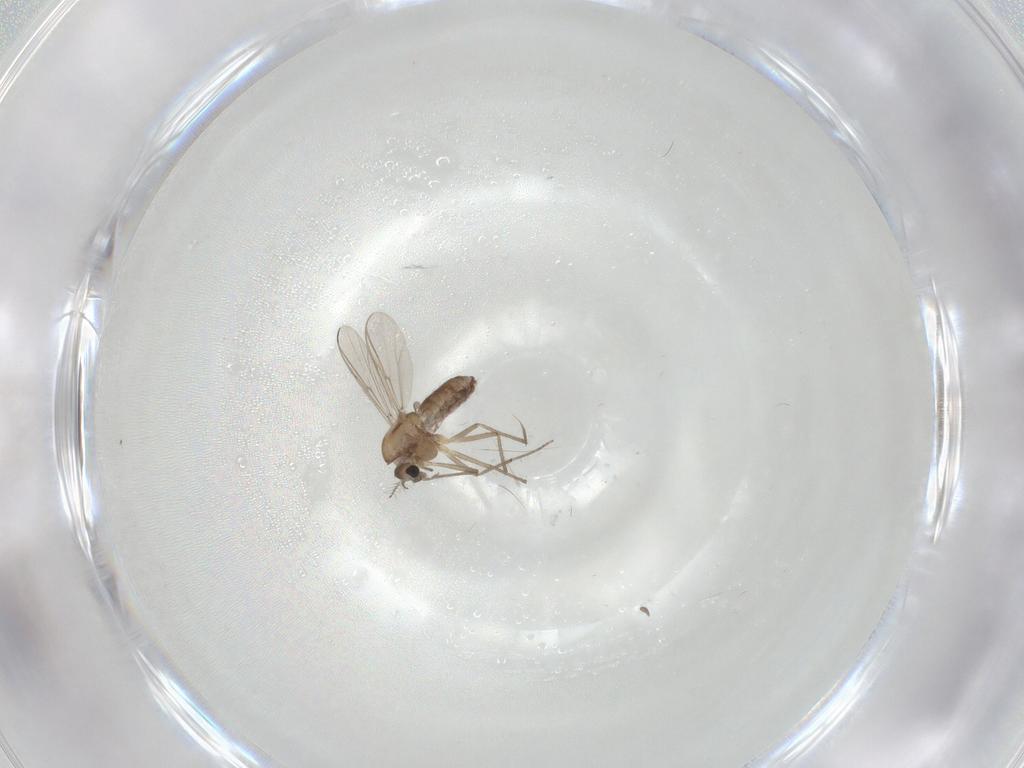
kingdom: Animalia
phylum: Arthropoda
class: Insecta
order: Diptera
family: Chironomidae
